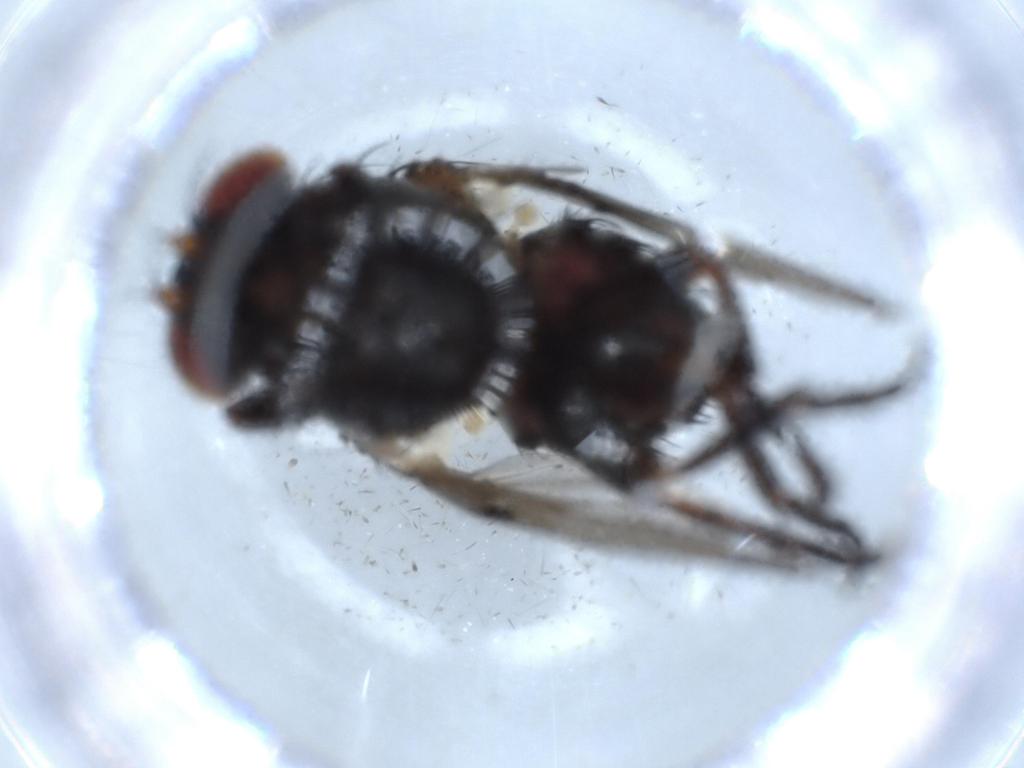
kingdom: Animalia
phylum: Arthropoda
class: Insecta
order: Diptera
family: Odiniidae
